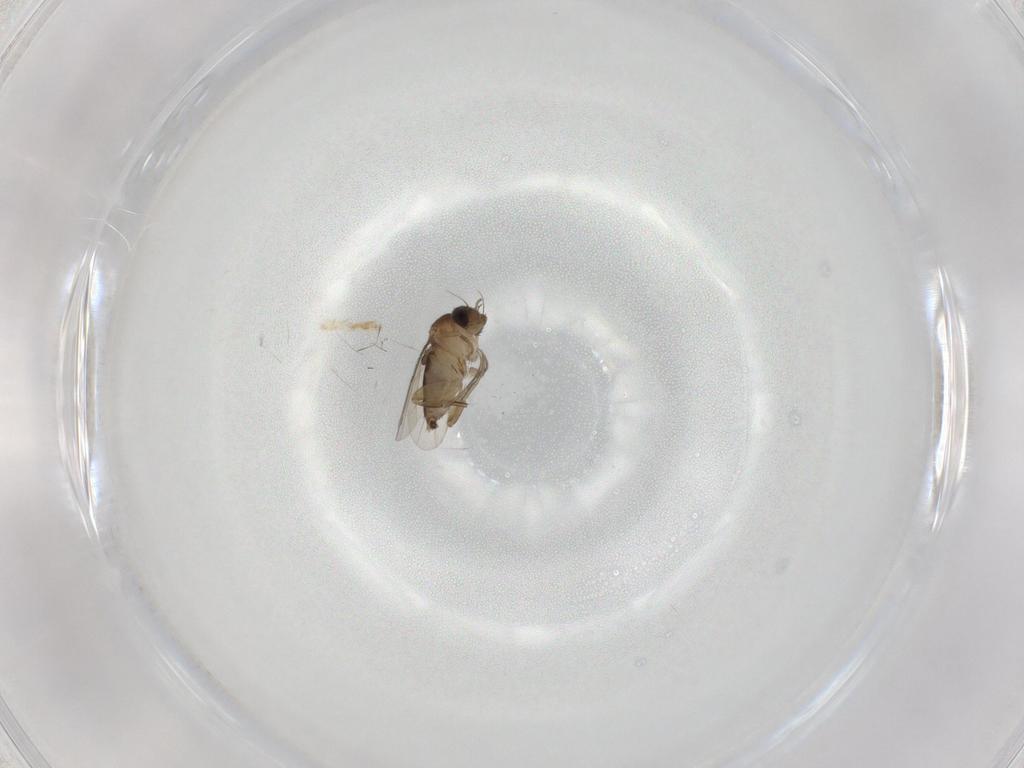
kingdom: Animalia
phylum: Arthropoda
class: Insecta
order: Diptera
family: Phoridae
